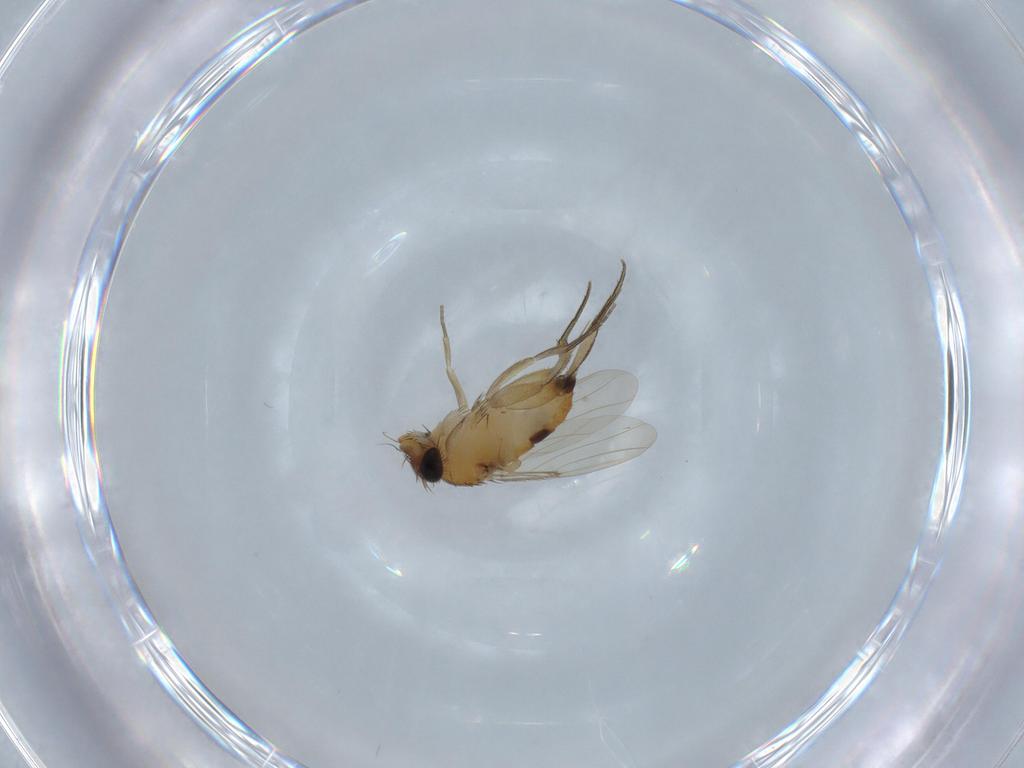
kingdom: Animalia
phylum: Arthropoda
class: Insecta
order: Diptera
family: Phoridae
